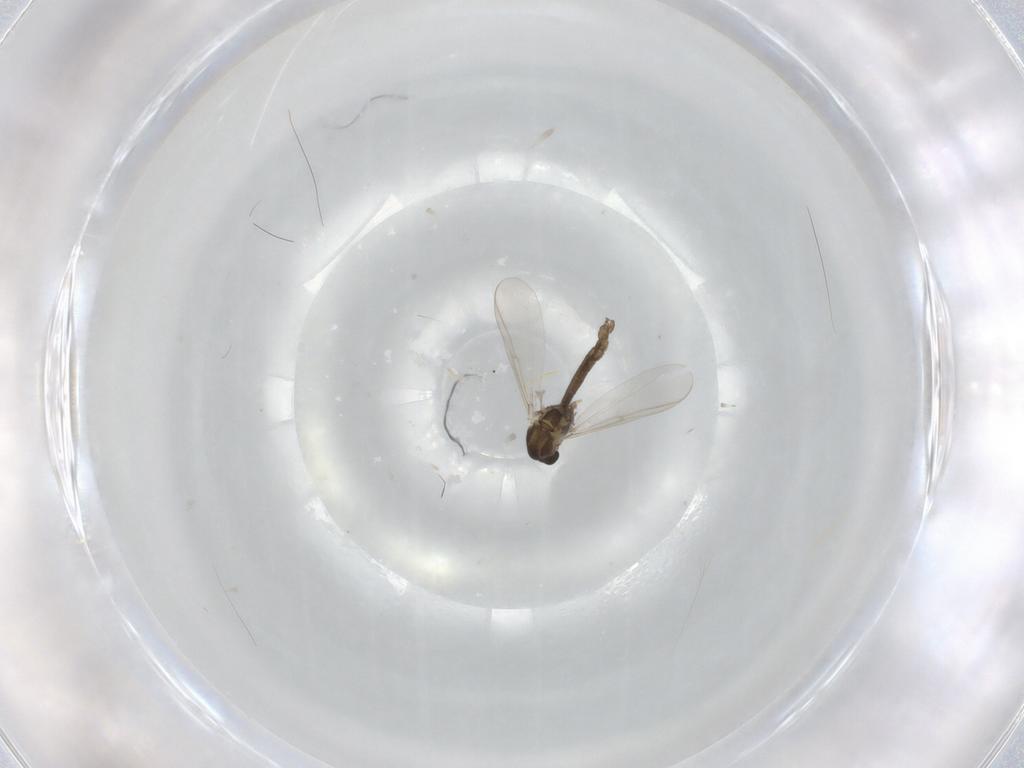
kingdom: Animalia
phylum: Arthropoda
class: Insecta
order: Diptera
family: Chironomidae
